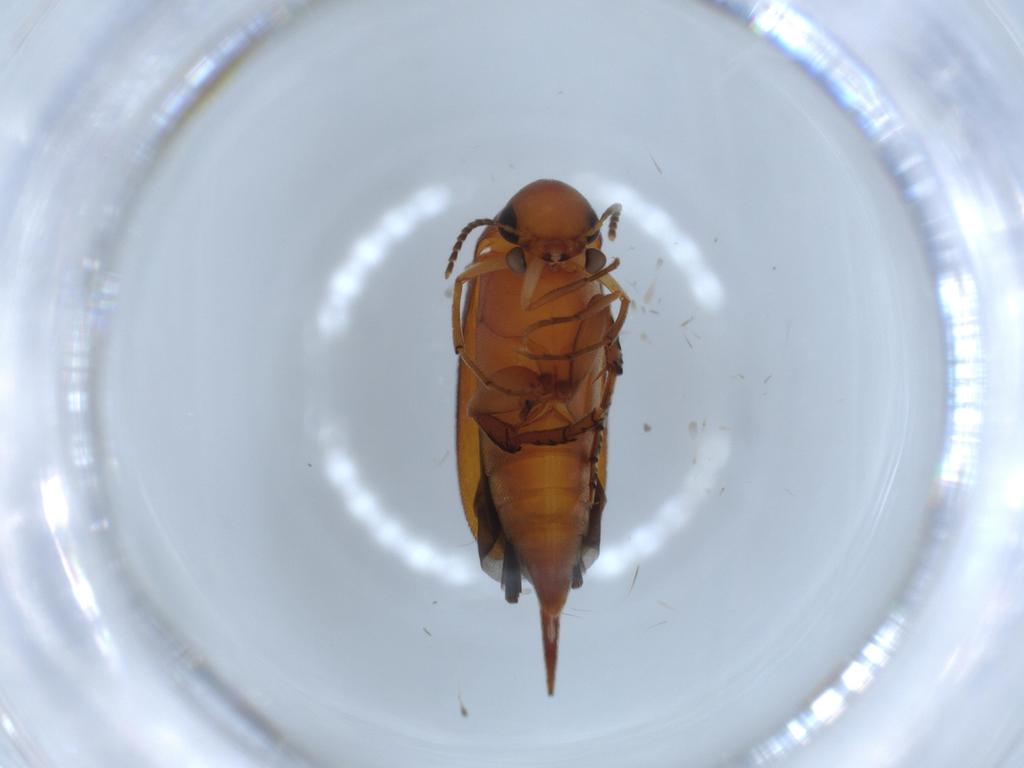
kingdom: Animalia
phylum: Arthropoda
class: Insecta
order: Coleoptera
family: Mordellidae
